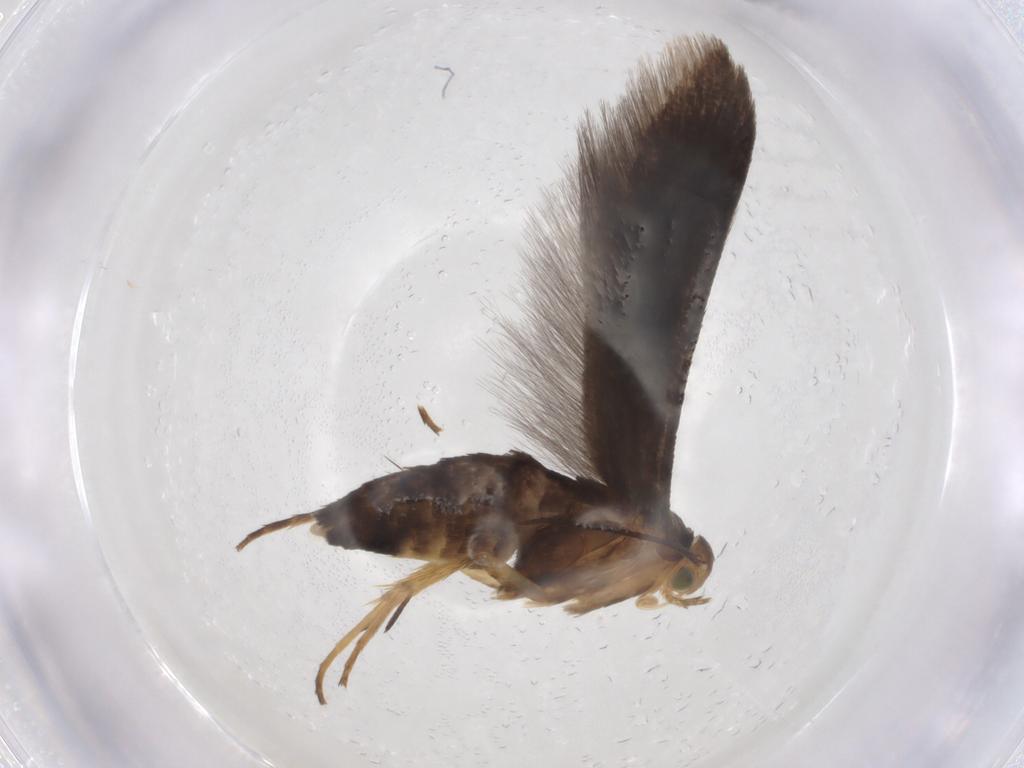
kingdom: Animalia
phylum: Arthropoda
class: Insecta
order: Lepidoptera
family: Oecophoridae
